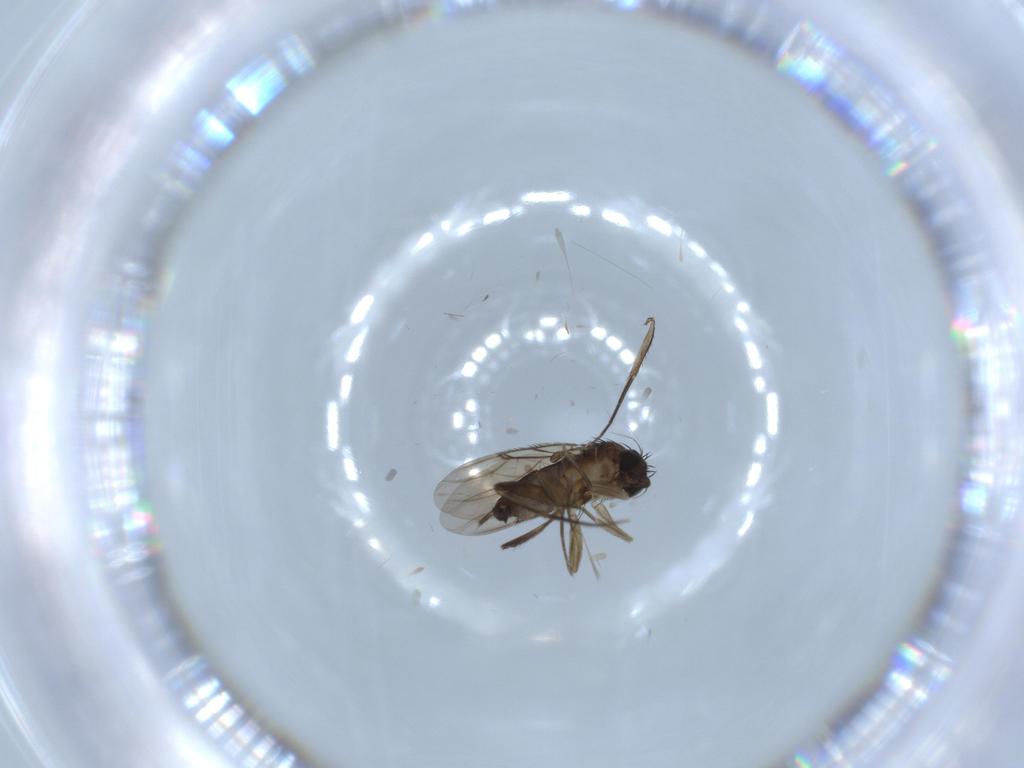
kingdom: Animalia
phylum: Arthropoda
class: Insecta
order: Diptera
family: Phoridae
